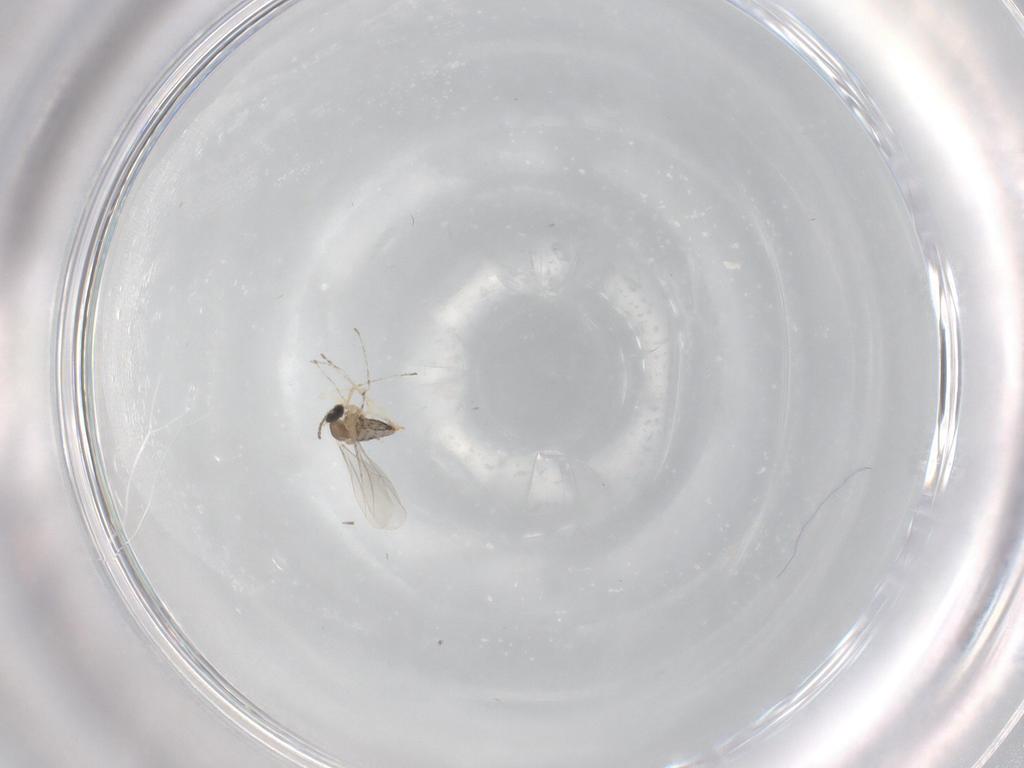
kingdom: Animalia
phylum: Arthropoda
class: Insecta
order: Diptera
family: Cecidomyiidae
